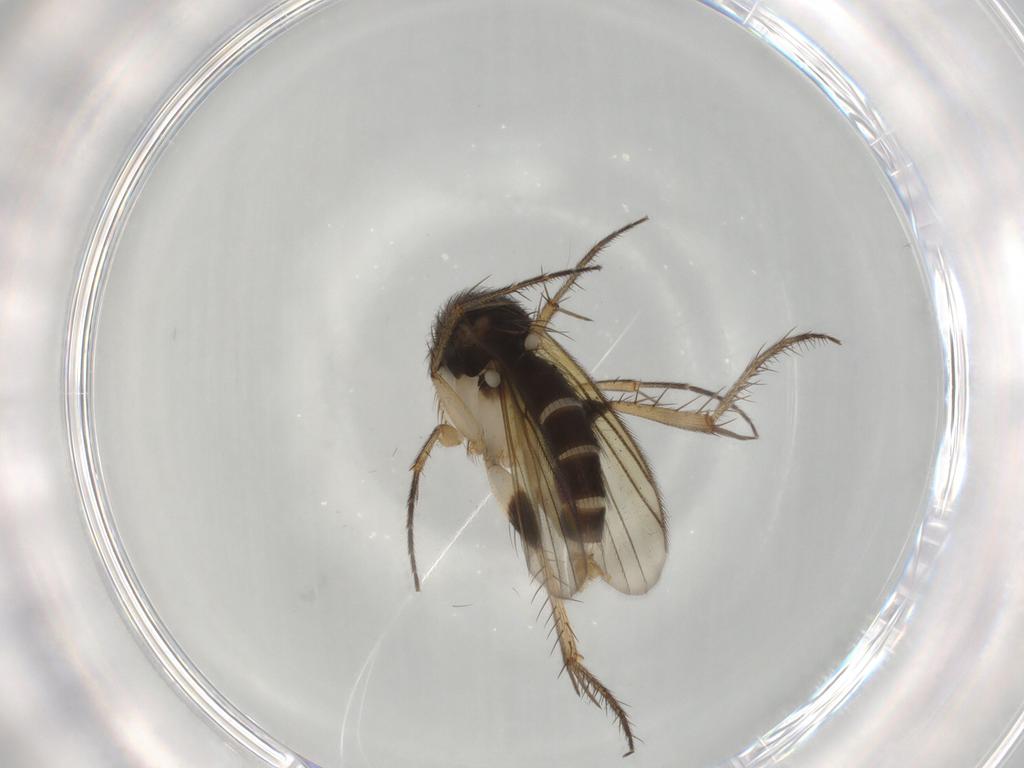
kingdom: Animalia
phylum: Arthropoda
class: Insecta
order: Diptera
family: Mycetophilidae
